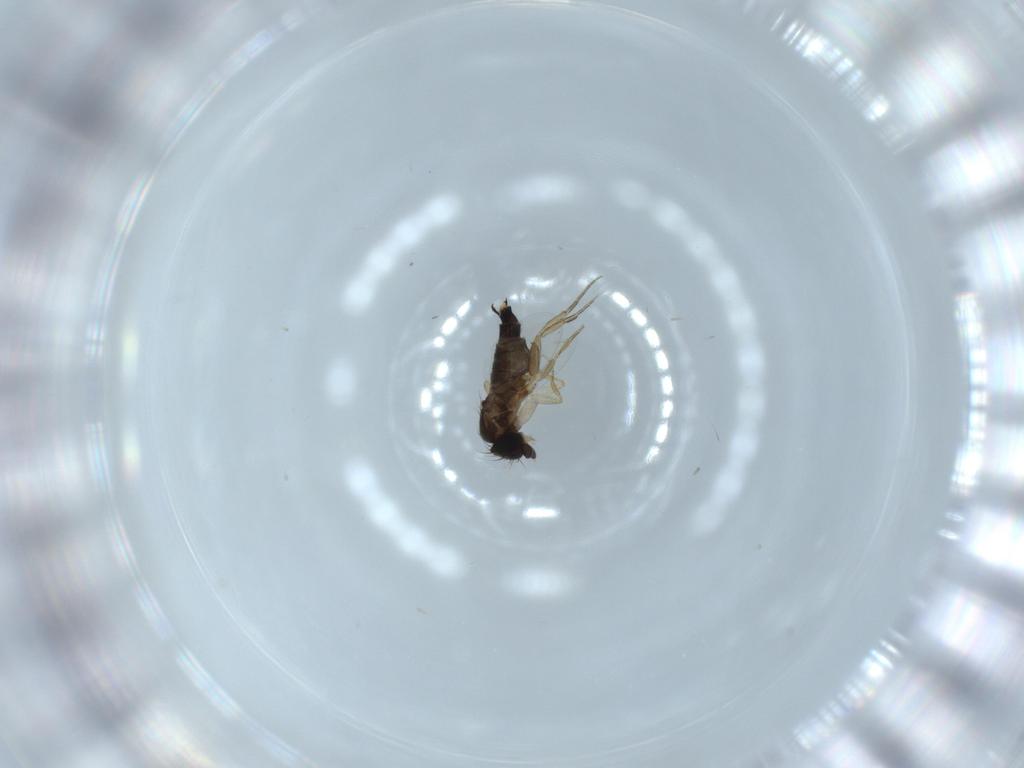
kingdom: Animalia
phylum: Arthropoda
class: Insecta
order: Diptera
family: Phoridae
